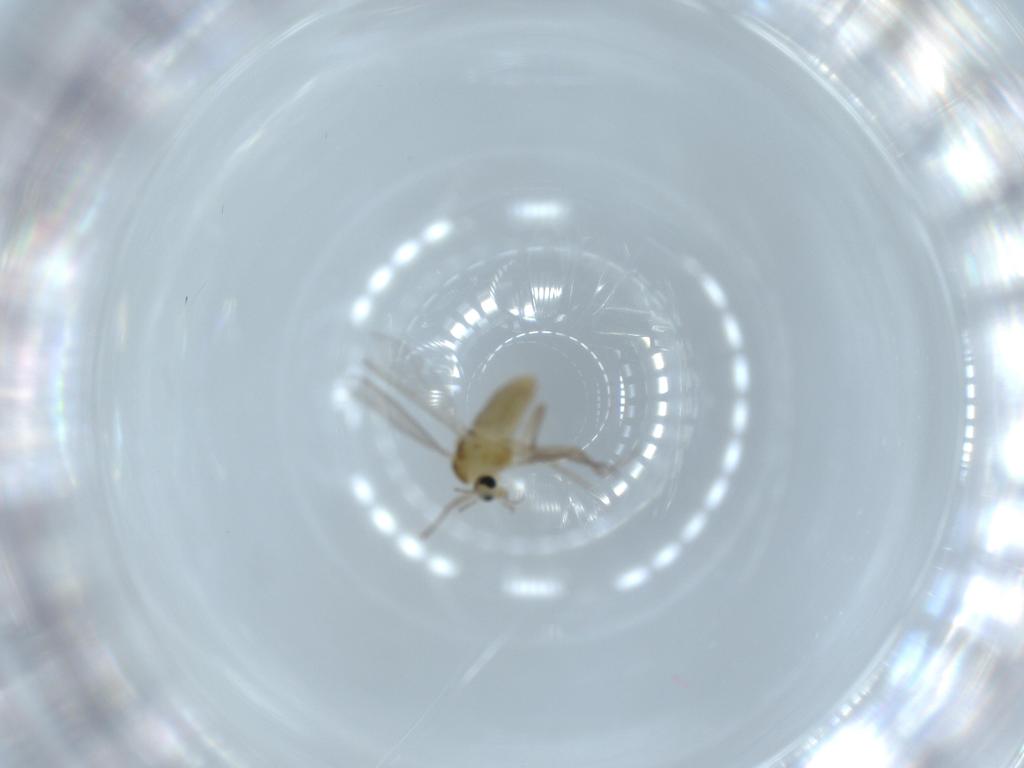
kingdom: Animalia
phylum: Arthropoda
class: Insecta
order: Diptera
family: Chironomidae
